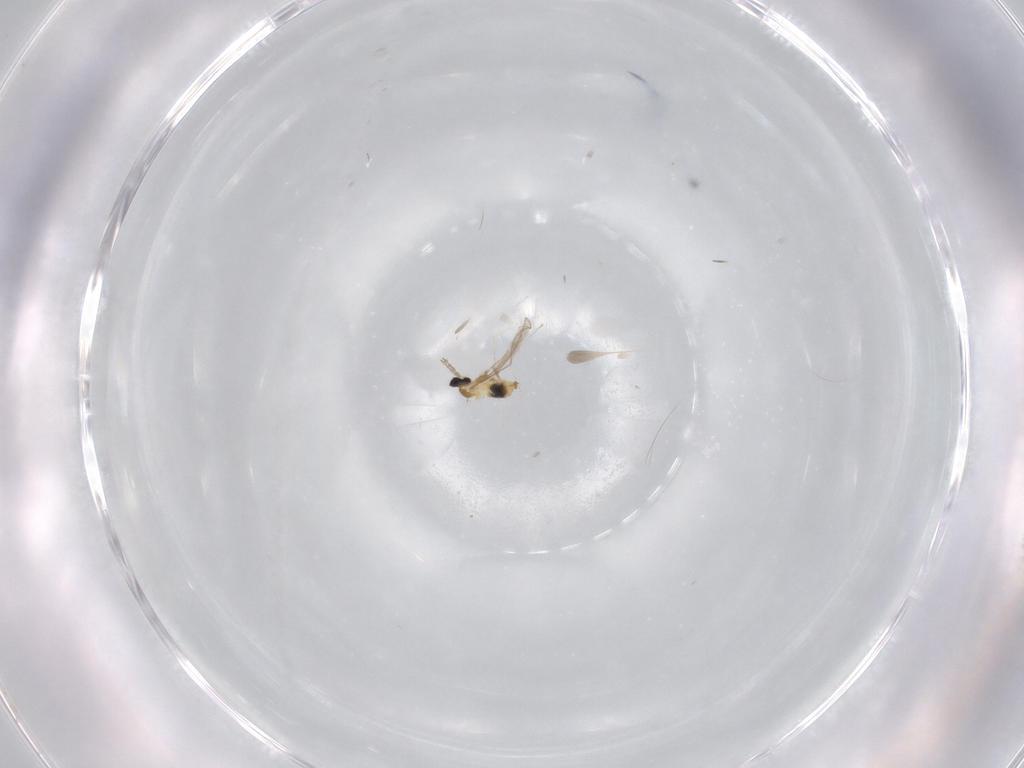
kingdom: Animalia
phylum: Arthropoda
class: Insecta
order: Diptera
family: Cecidomyiidae
